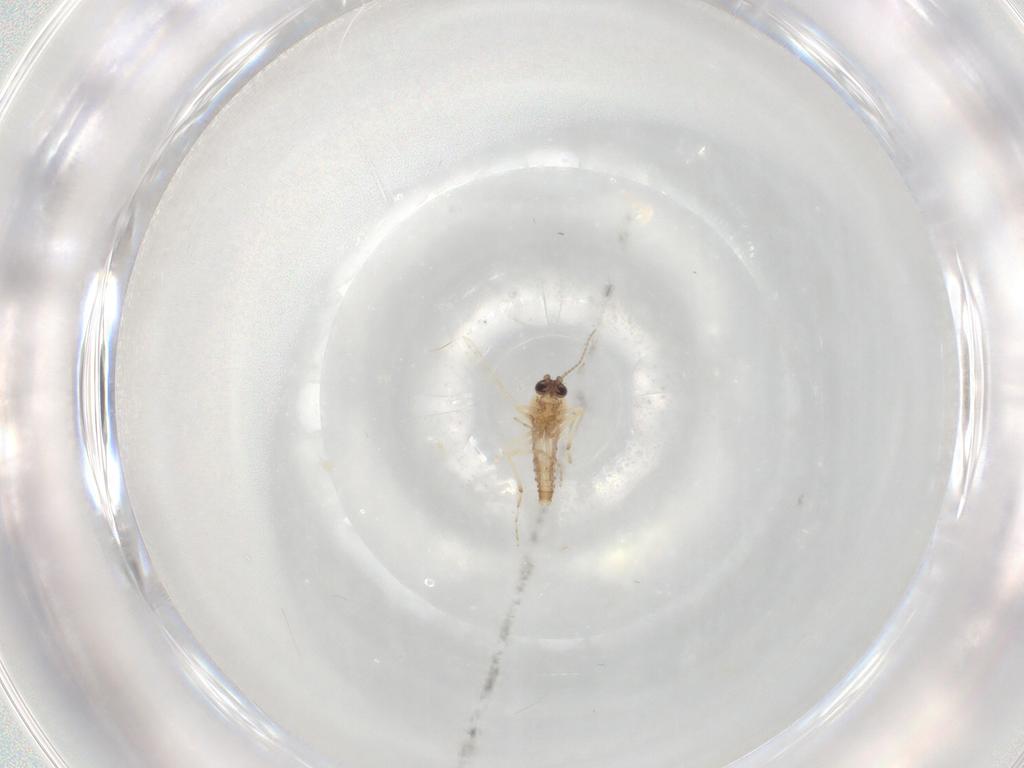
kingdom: Animalia
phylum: Arthropoda
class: Insecta
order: Diptera
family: Ceratopogonidae
